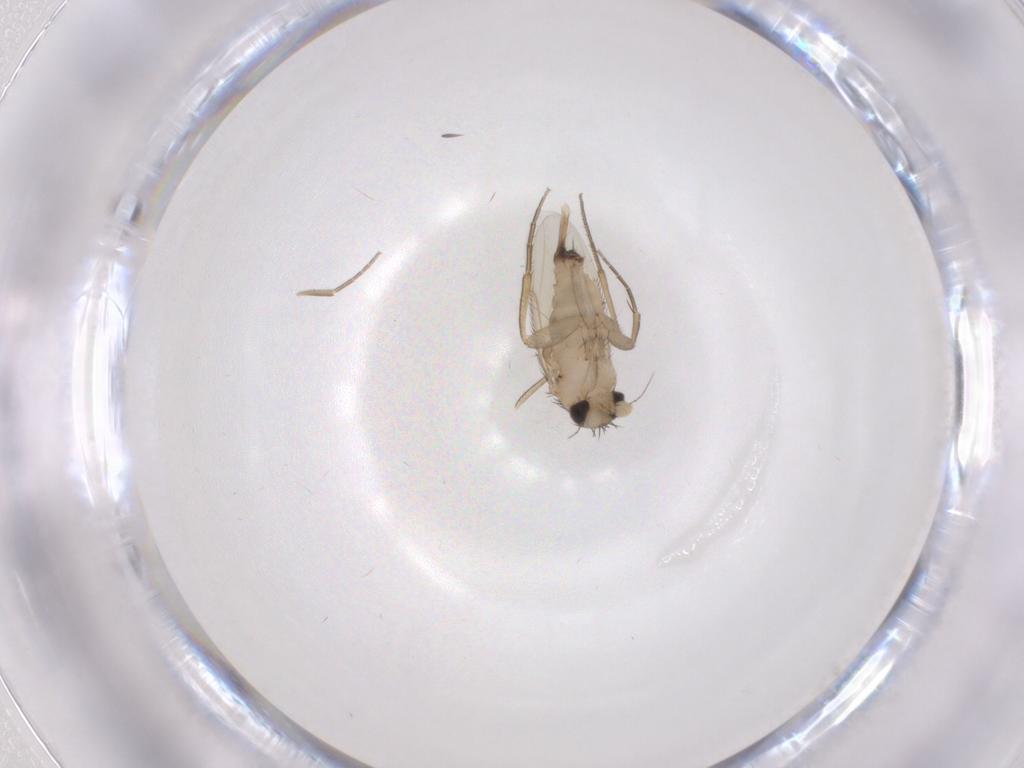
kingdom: Animalia
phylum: Arthropoda
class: Insecta
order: Diptera
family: Phoridae
